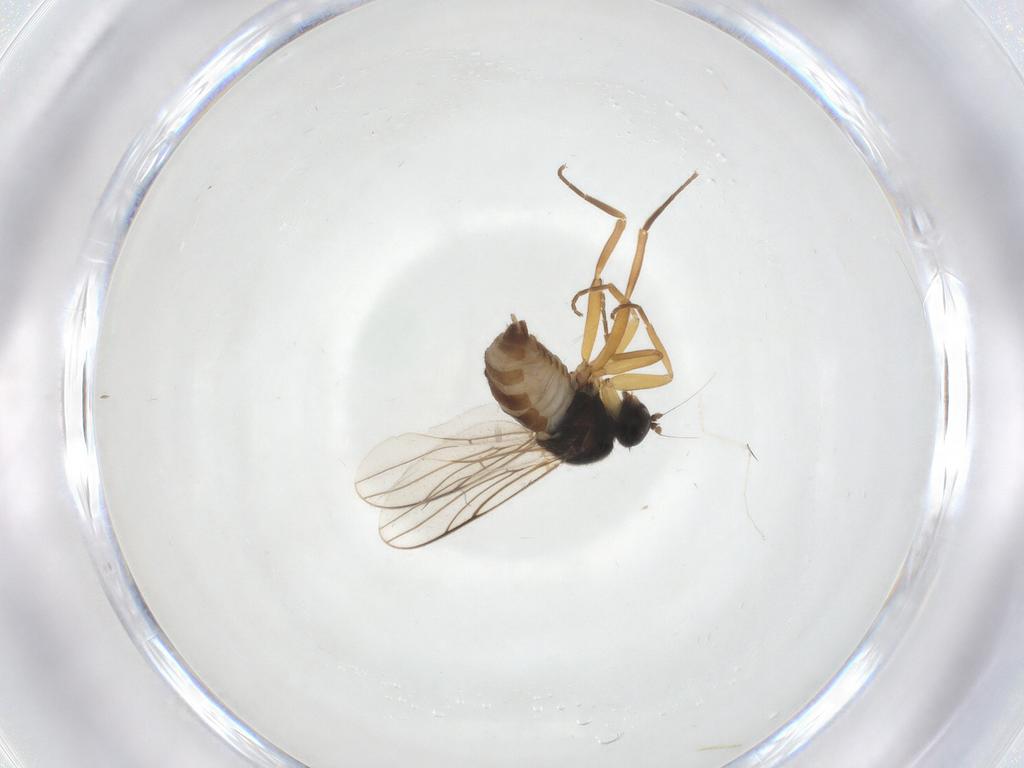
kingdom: Animalia
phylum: Arthropoda
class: Insecta
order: Diptera
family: Hybotidae
